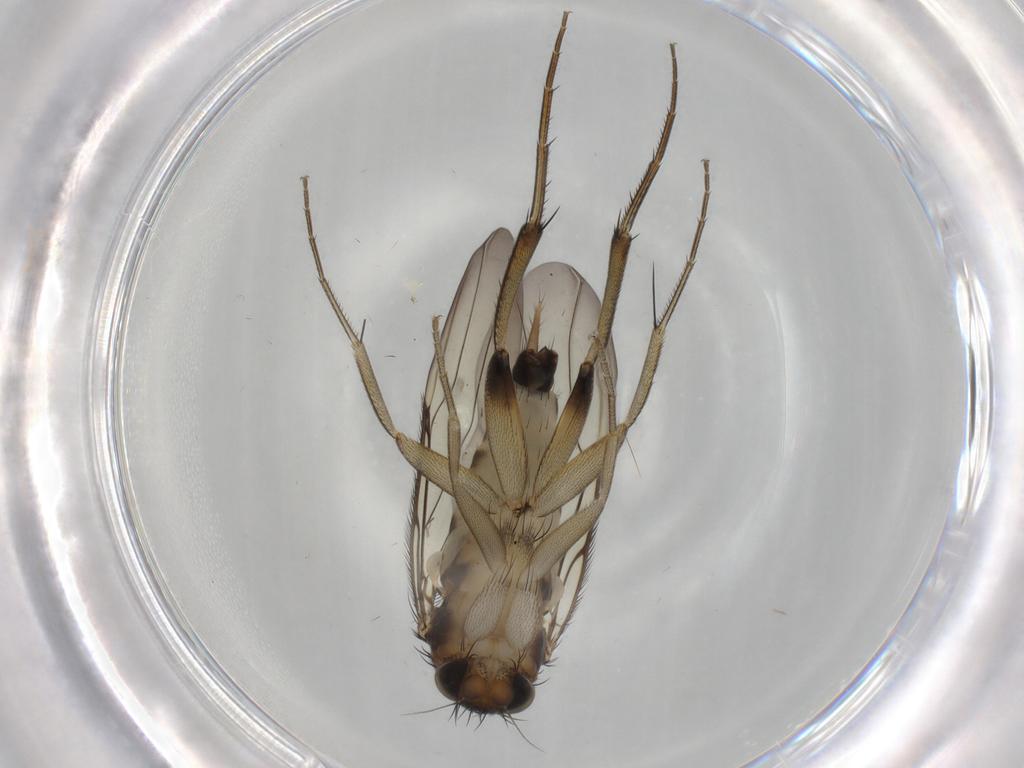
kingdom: Animalia
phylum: Arthropoda
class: Insecta
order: Diptera
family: Phoridae
